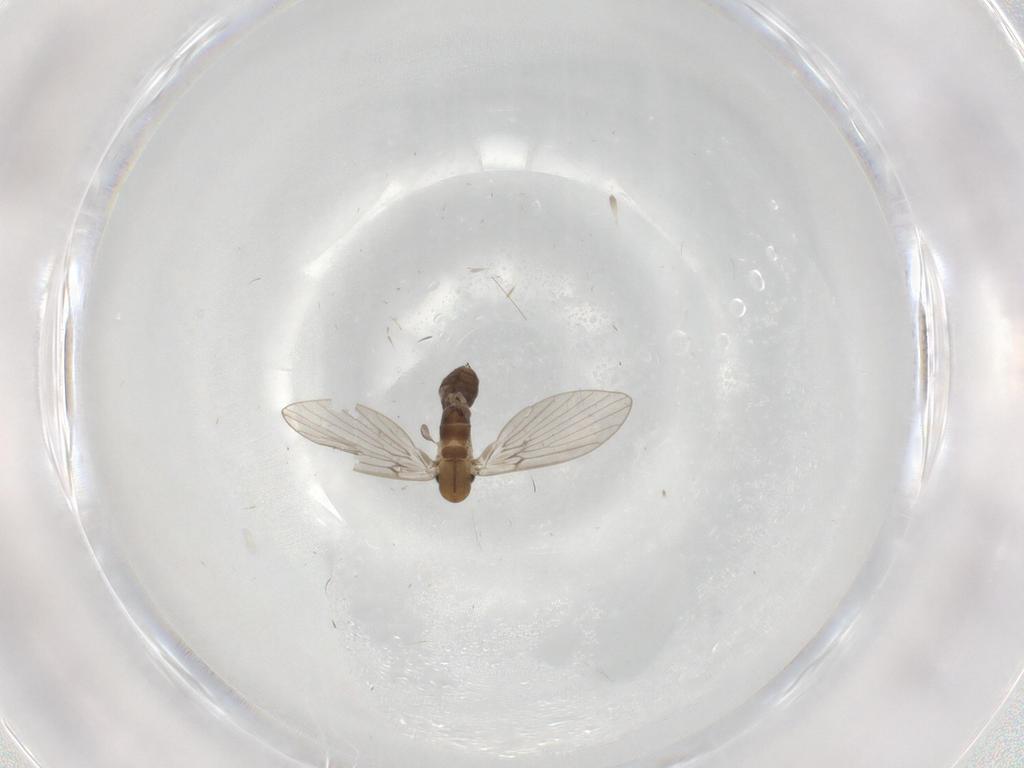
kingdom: Animalia
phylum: Arthropoda
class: Insecta
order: Diptera
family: Psychodidae
